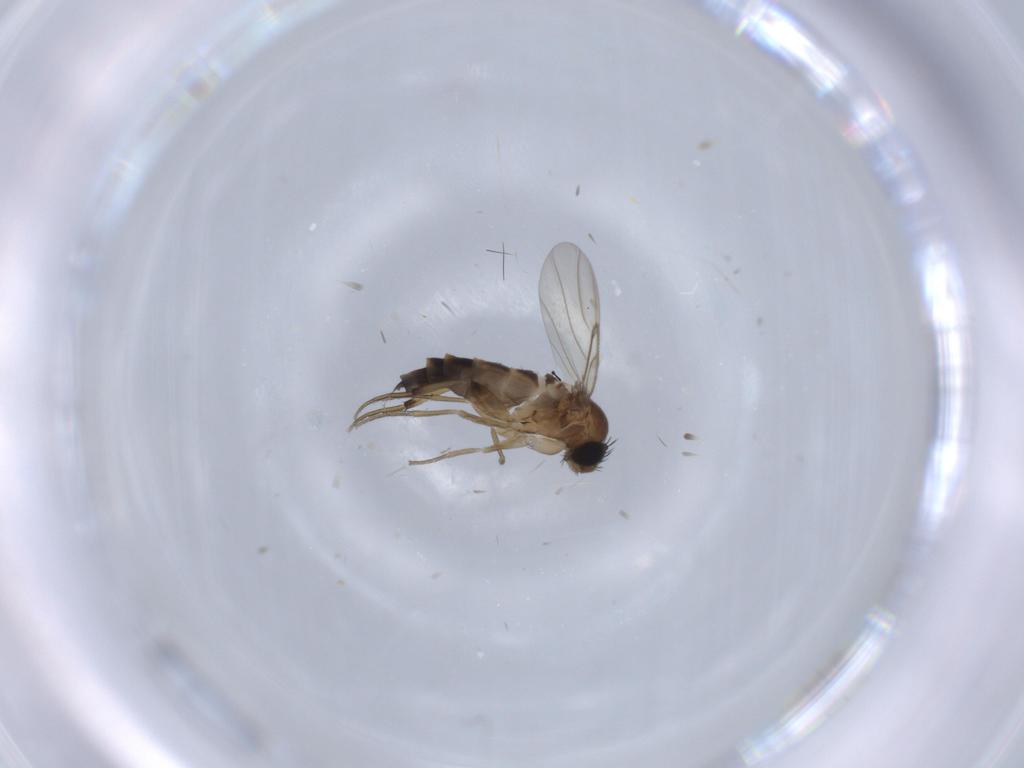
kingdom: Animalia
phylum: Arthropoda
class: Insecta
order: Diptera
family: Phoridae
